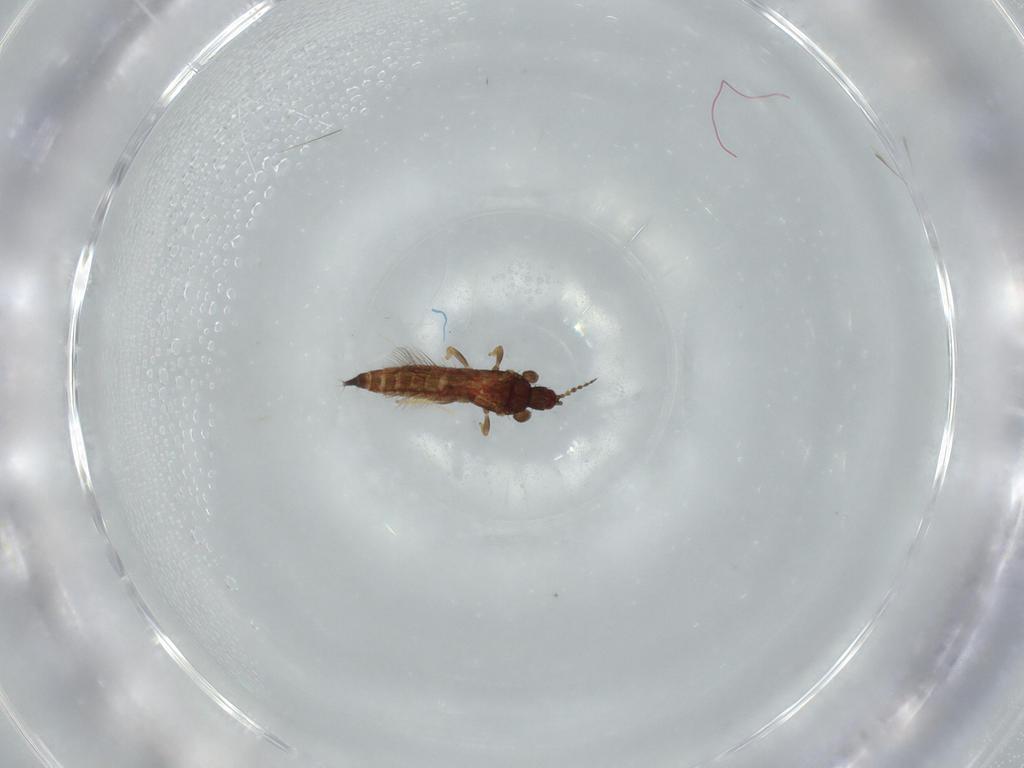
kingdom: Animalia
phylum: Arthropoda
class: Insecta
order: Thysanoptera
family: Phlaeothripidae
